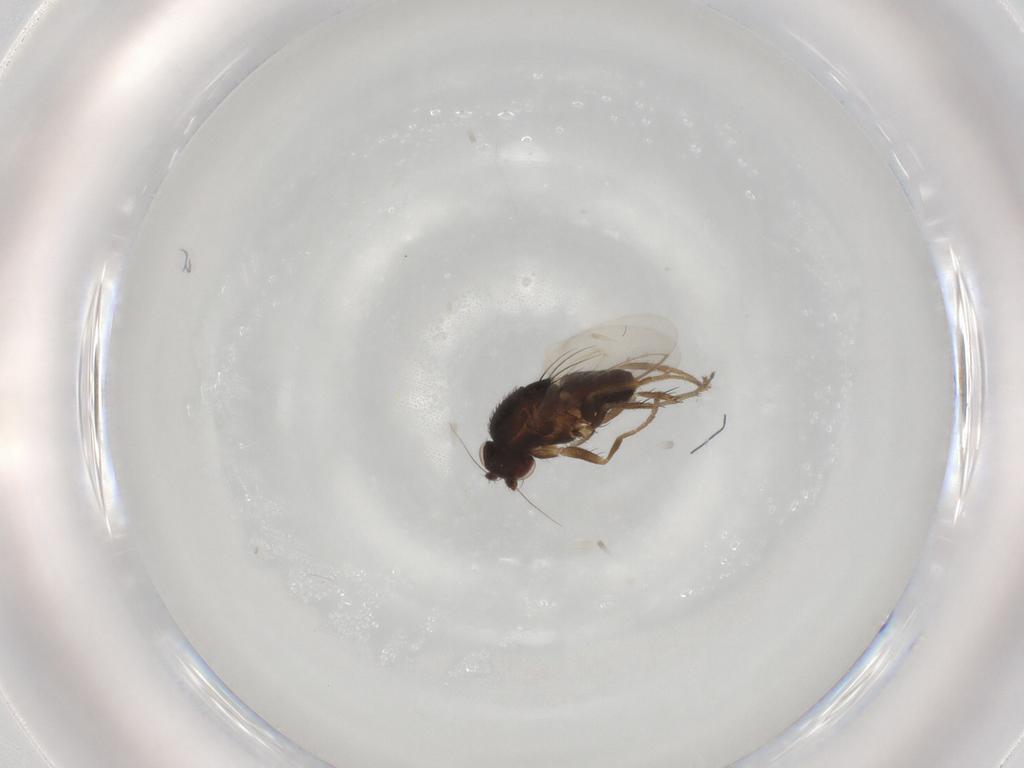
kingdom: Animalia
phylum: Arthropoda
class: Insecta
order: Diptera
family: Sphaeroceridae
